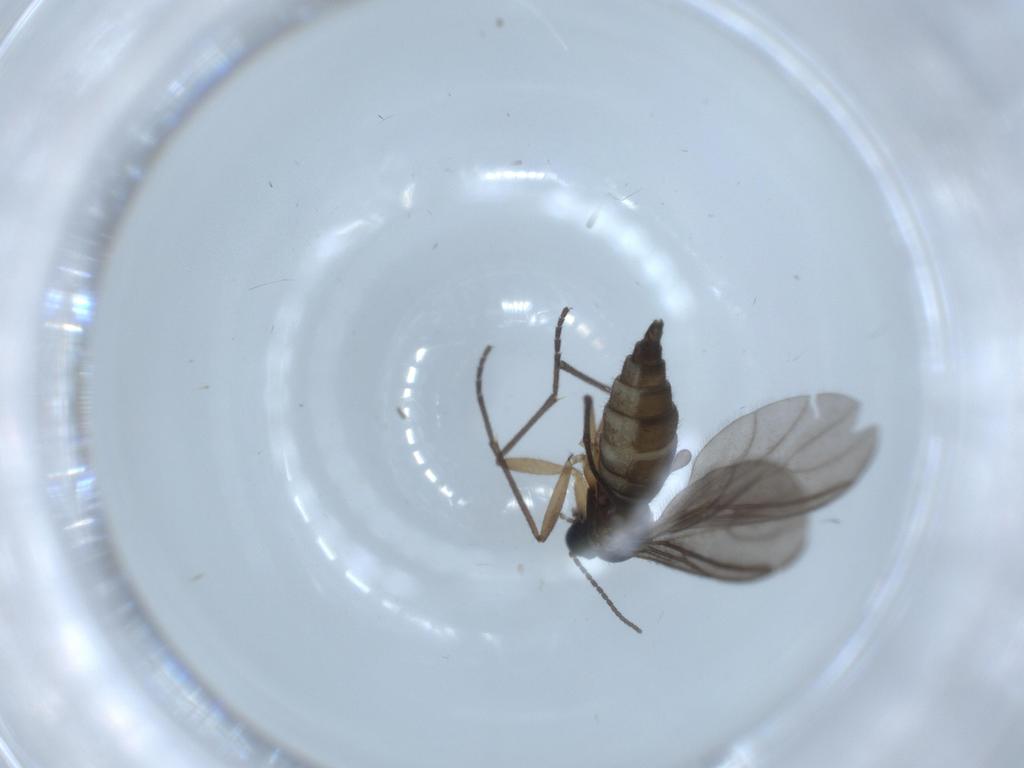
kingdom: Animalia
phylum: Arthropoda
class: Insecta
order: Diptera
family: Sciaridae
